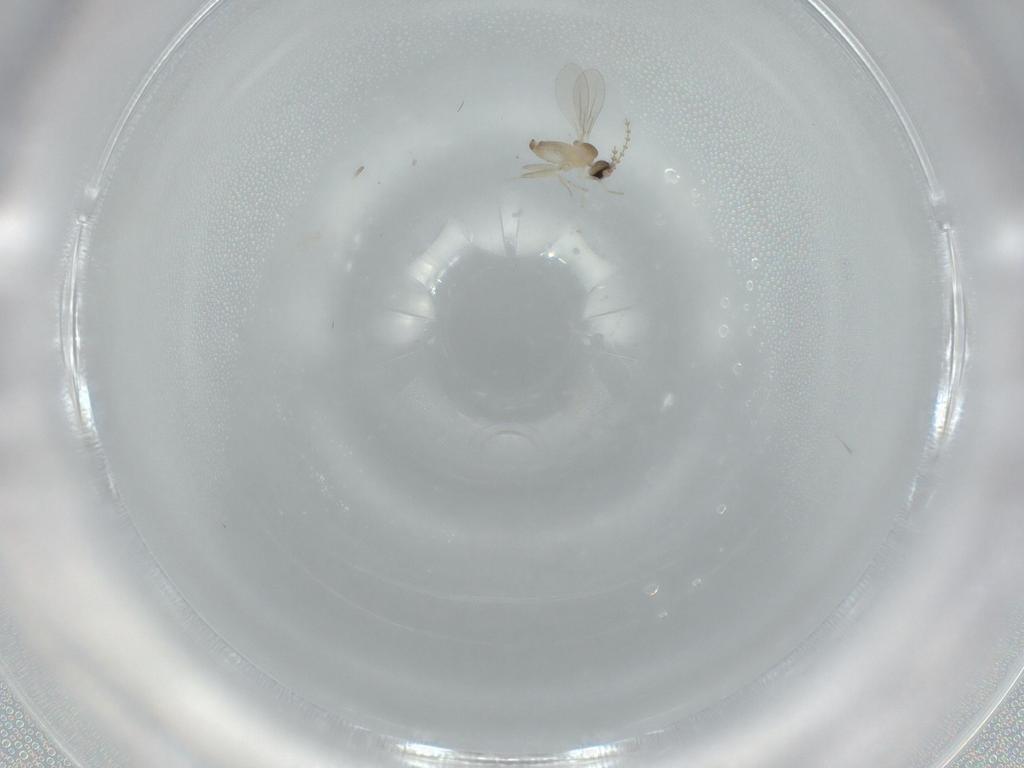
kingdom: Animalia
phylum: Arthropoda
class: Insecta
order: Diptera
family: Cecidomyiidae
